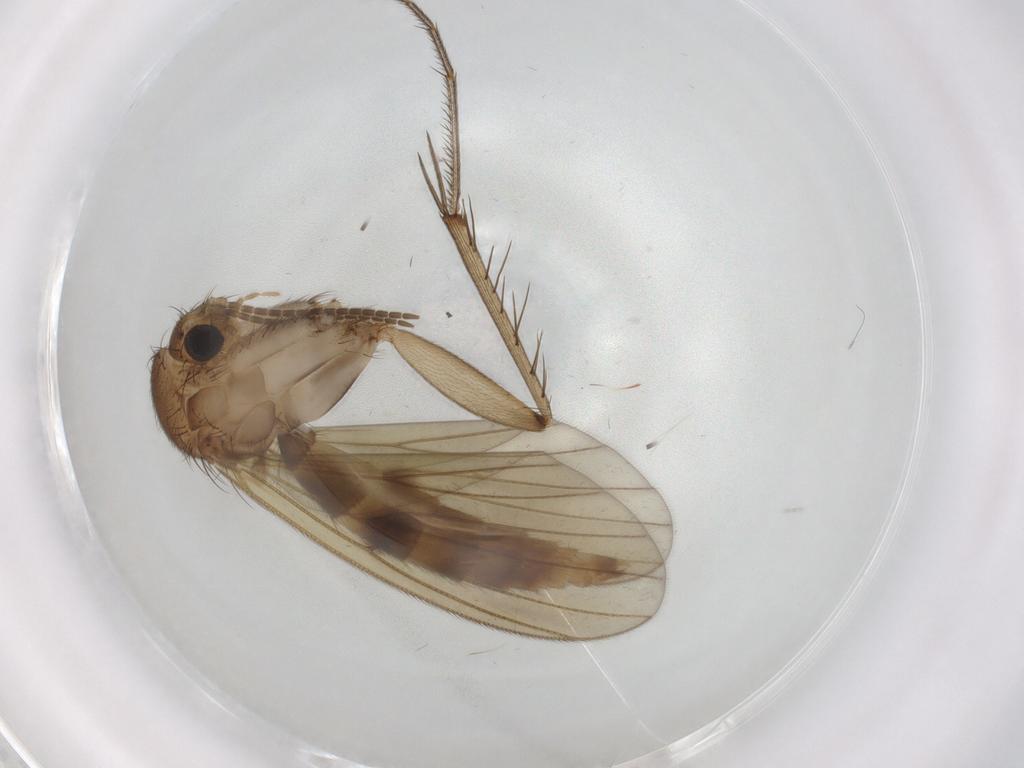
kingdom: Animalia
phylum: Arthropoda
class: Insecta
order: Diptera
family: Mycetophilidae
